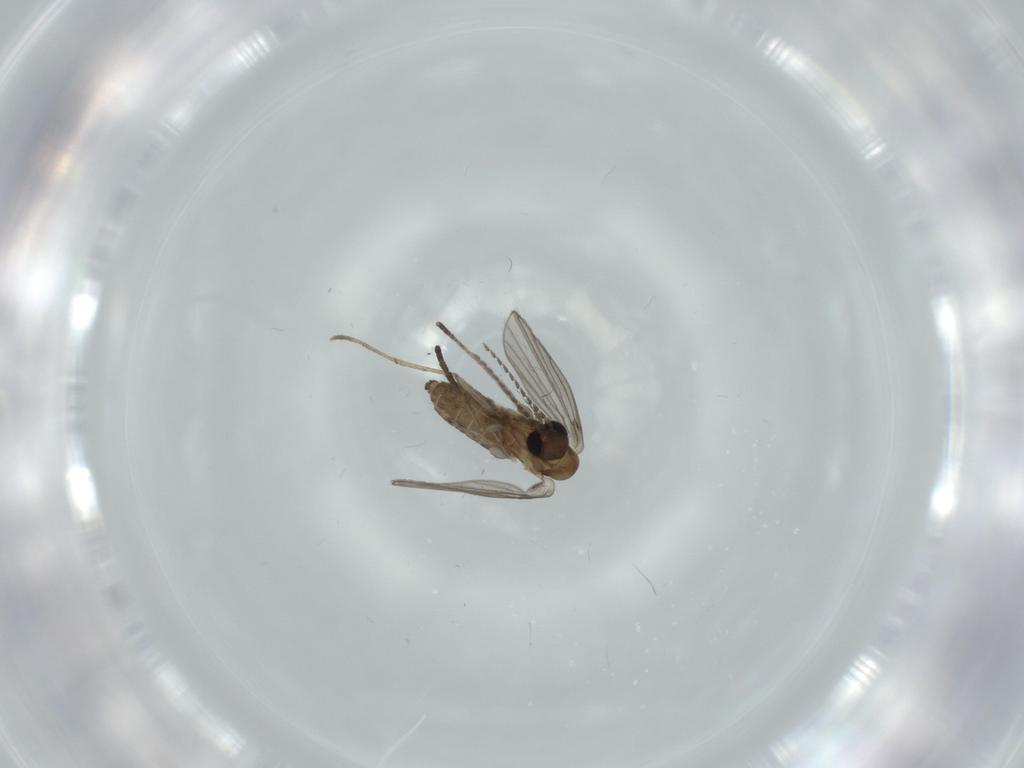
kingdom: Animalia
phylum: Arthropoda
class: Insecta
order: Diptera
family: Psychodidae
